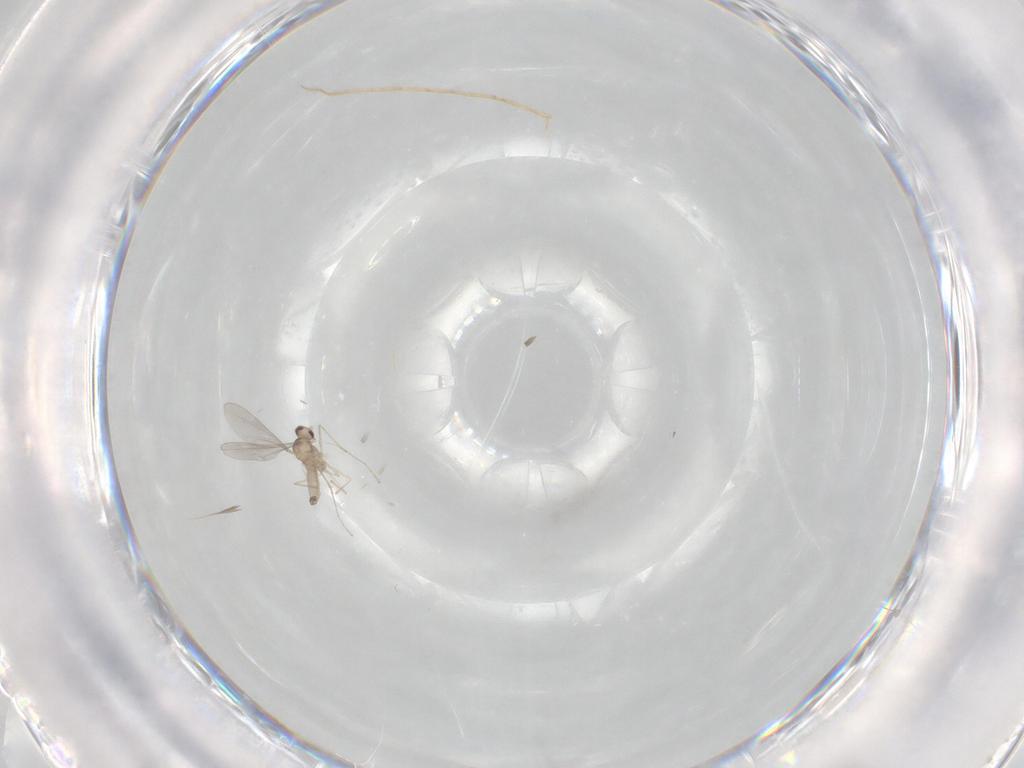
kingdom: Animalia
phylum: Arthropoda
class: Insecta
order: Diptera
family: Cecidomyiidae
